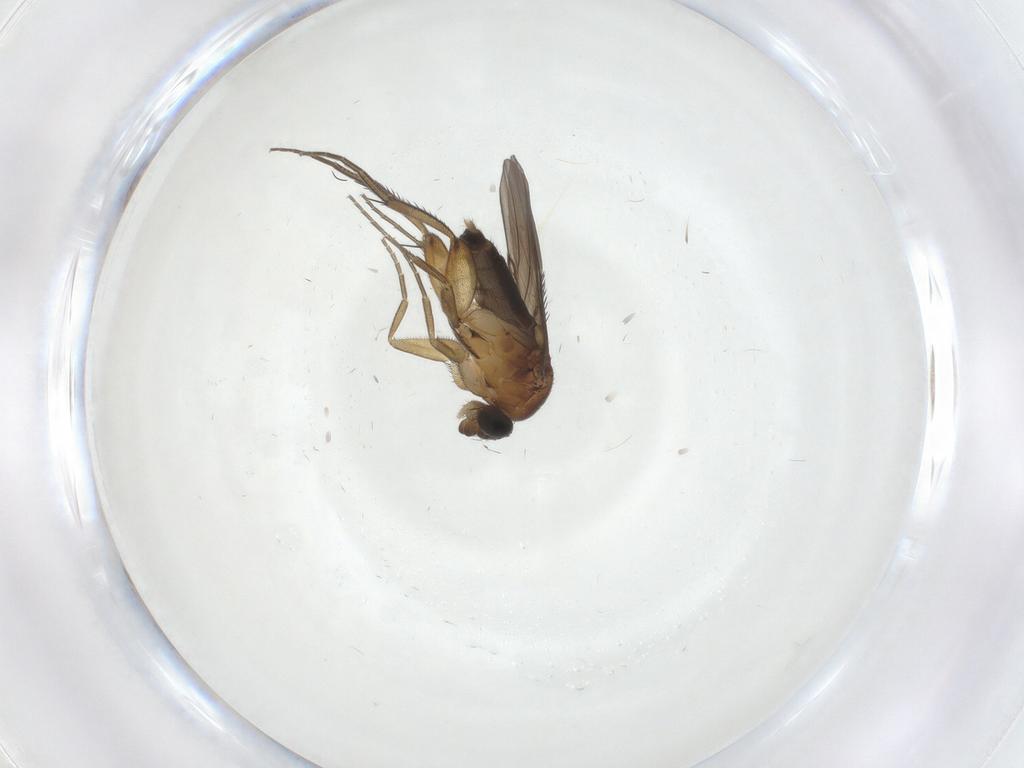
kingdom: Animalia
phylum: Arthropoda
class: Insecta
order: Diptera
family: Phoridae
